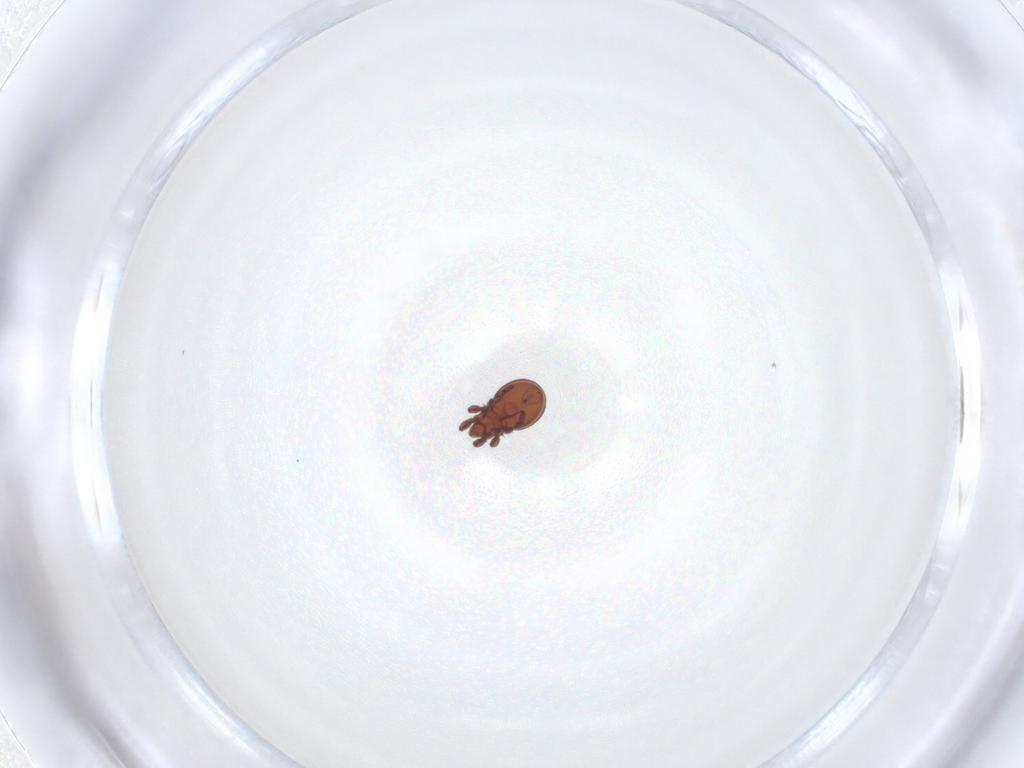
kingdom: Animalia
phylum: Arthropoda
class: Arachnida
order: Sarcoptiformes
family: Eremaeidae
